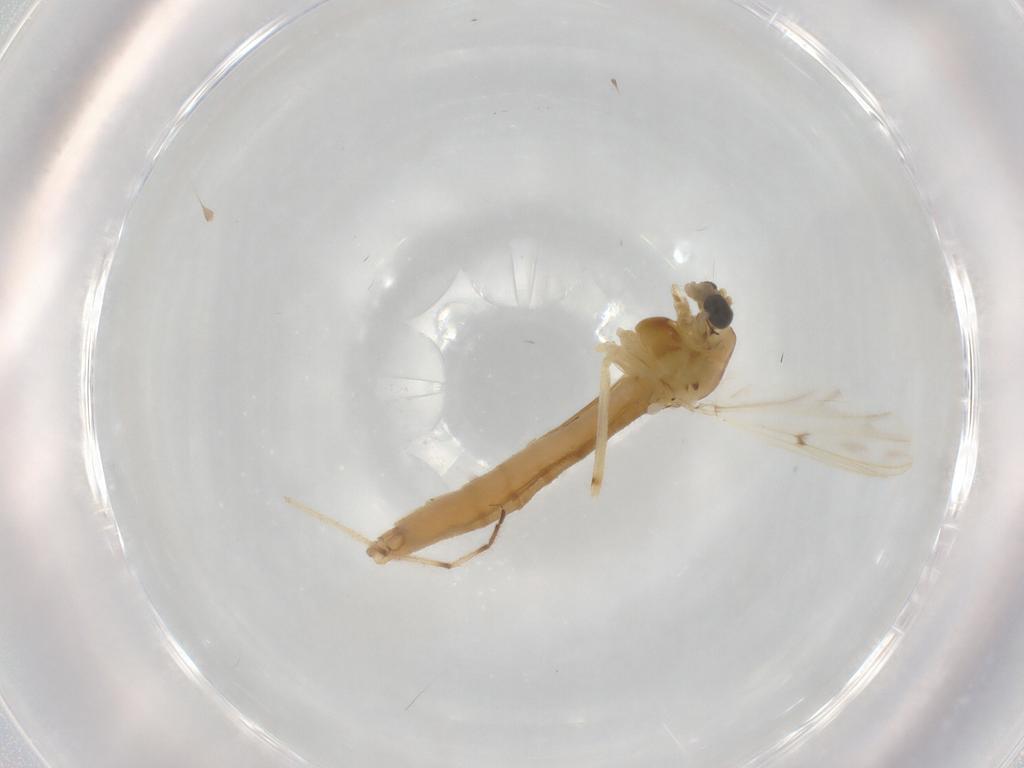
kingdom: Animalia
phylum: Arthropoda
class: Insecta
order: Diptera
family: Chironomidae
